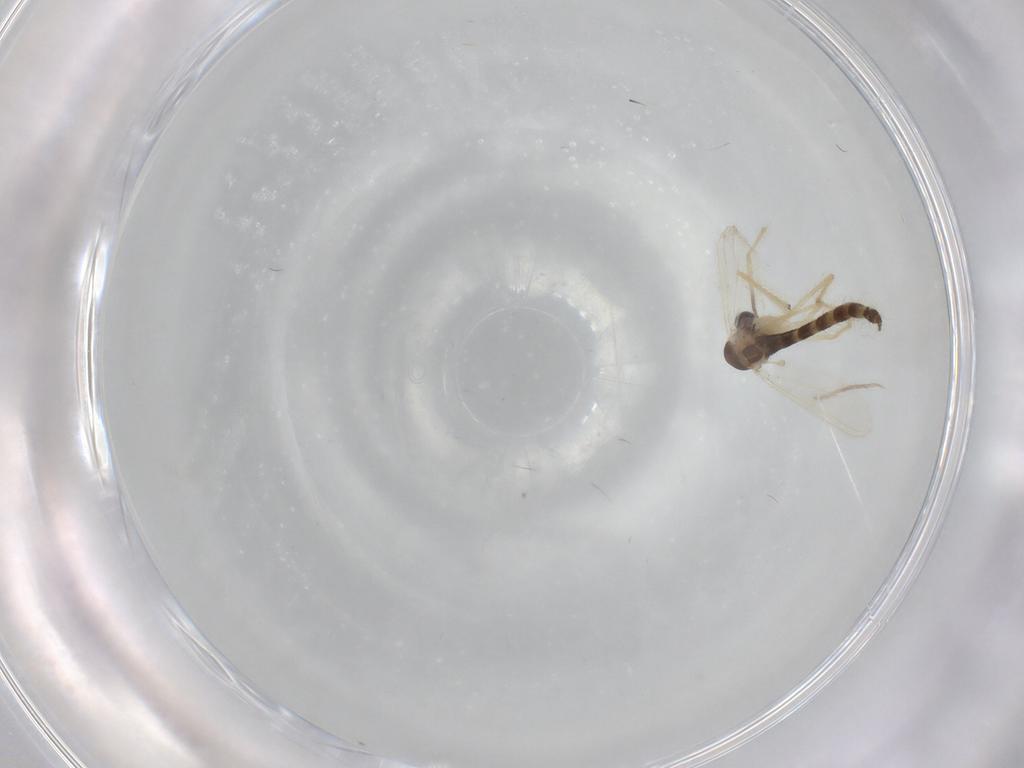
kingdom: Animalia
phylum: Arthropoda
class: Insecta
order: Diptera
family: Chironomidae
